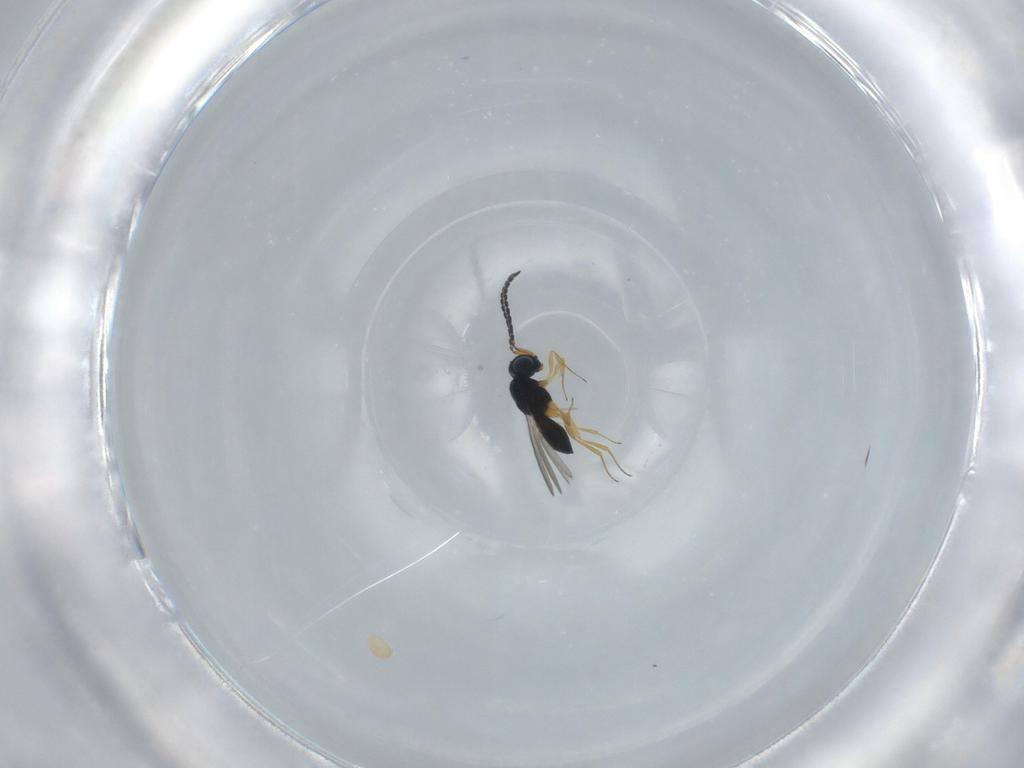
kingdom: Animalia
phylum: Arthropoda
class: Insecta
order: Hymenoptera
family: Scelionidae
